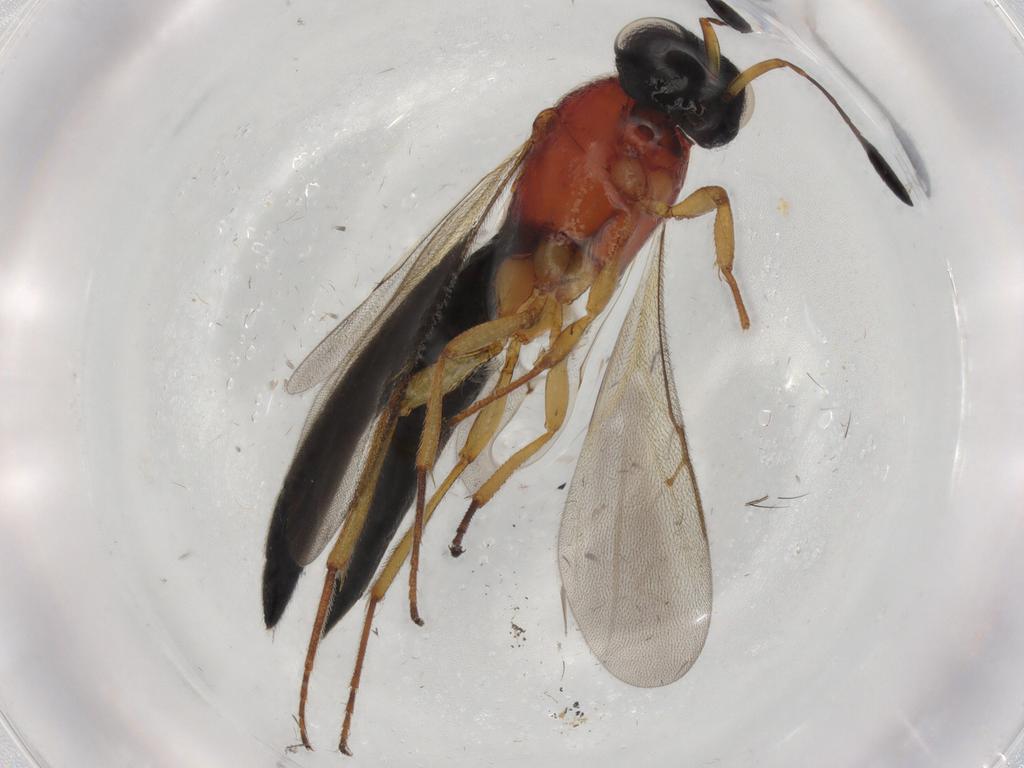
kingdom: Animalia
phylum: Arthropoda
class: Insecta
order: Hymenoptera
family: Scelionidae
